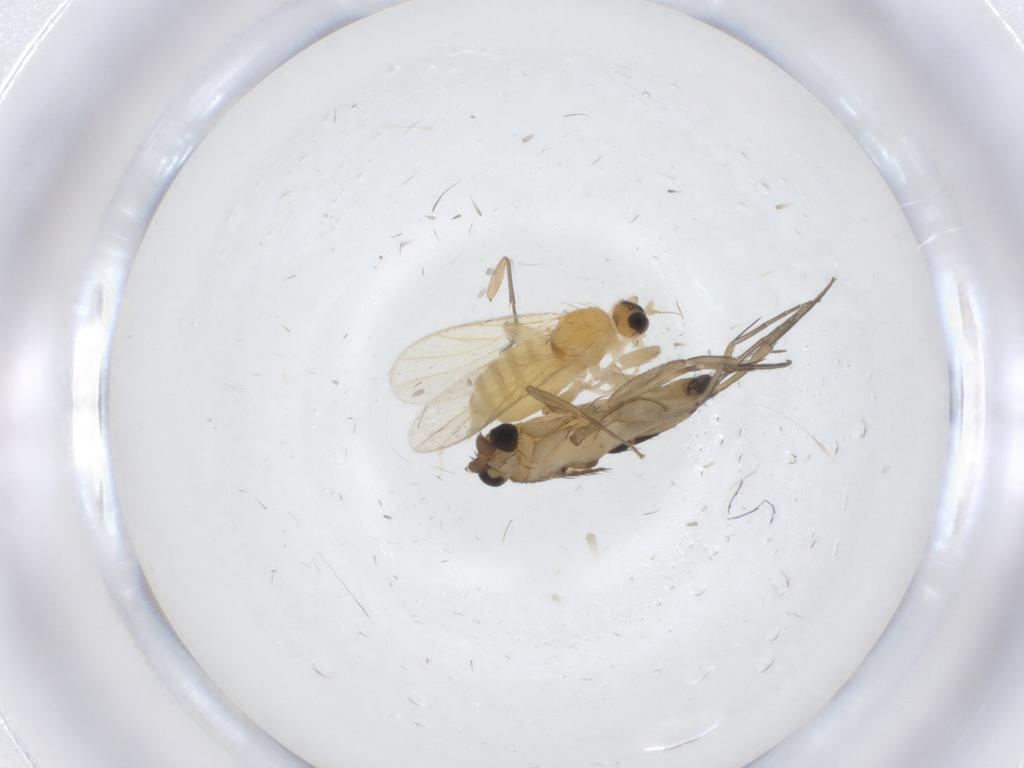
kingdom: Animalia
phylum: Arthropoda
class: Insecta
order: Diptera
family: Hybotidae
